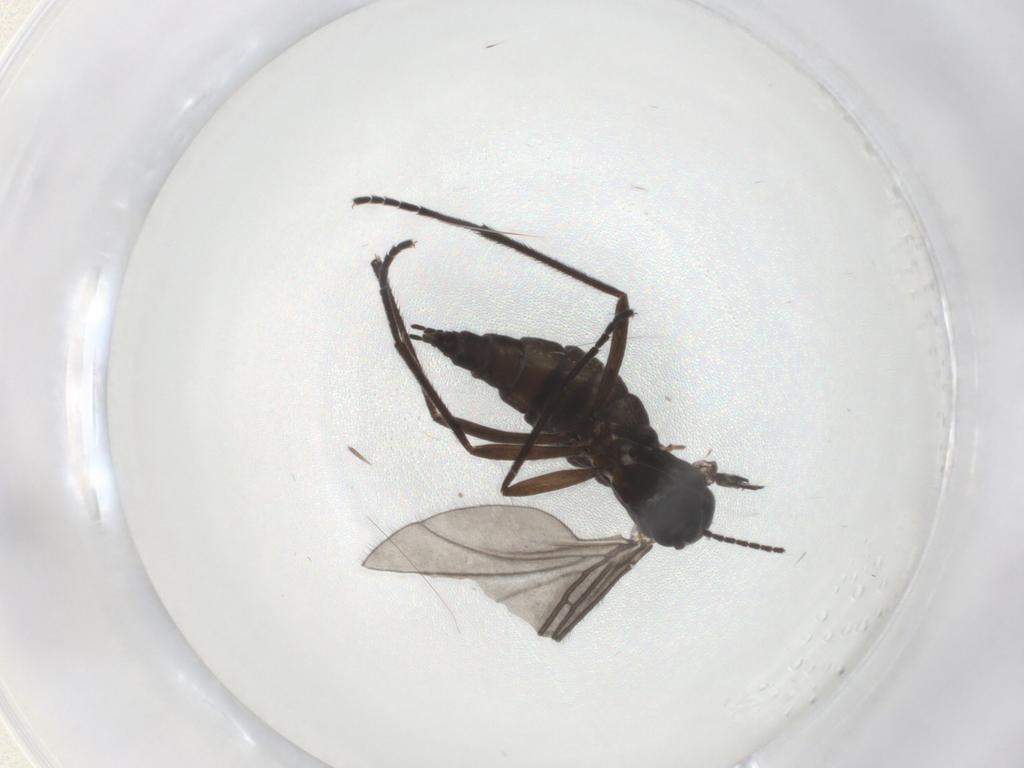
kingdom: Animalia
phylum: Arthropoda
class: Insecta
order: Diptera
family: Sciaridae
